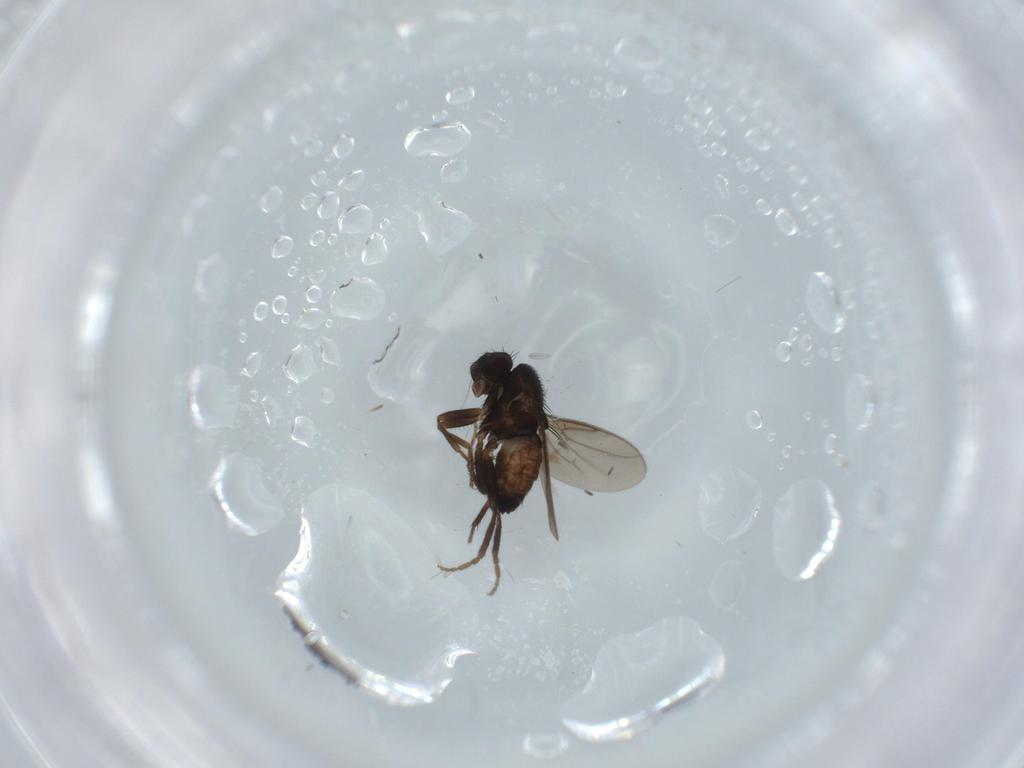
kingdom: Animalia
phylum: Arthropoda
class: Insecta
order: Diptera
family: Sphaeroceridae
